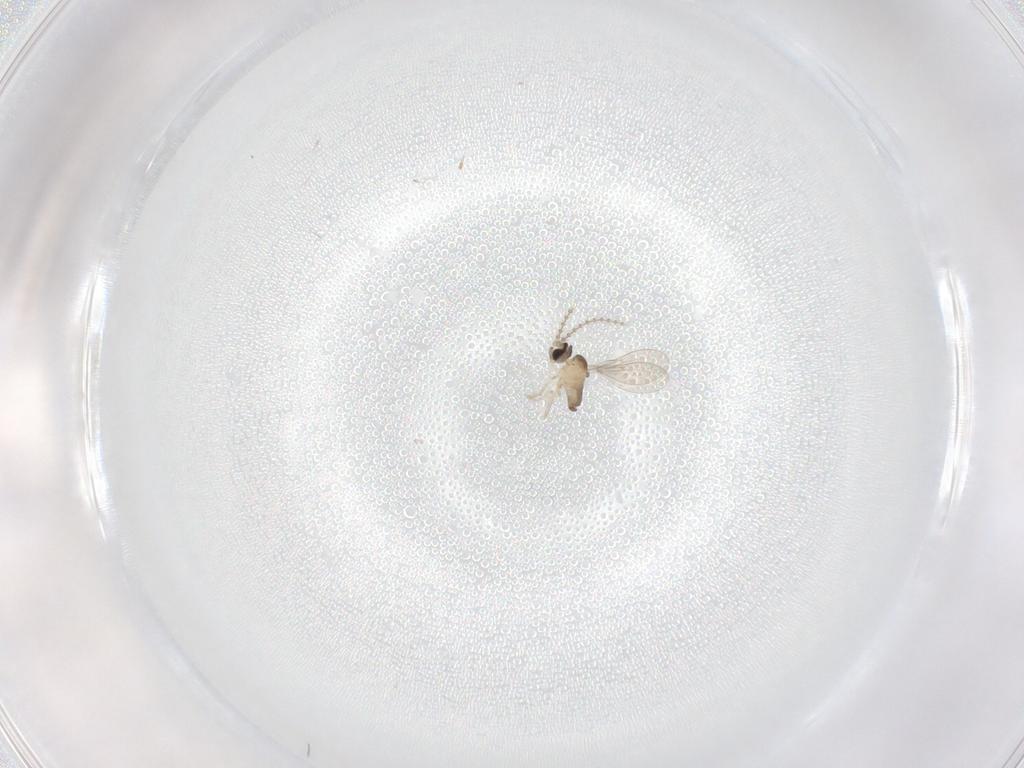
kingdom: Animalia
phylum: Arthropoda
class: Insecta
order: Diptera
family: Cecidomyiidae
